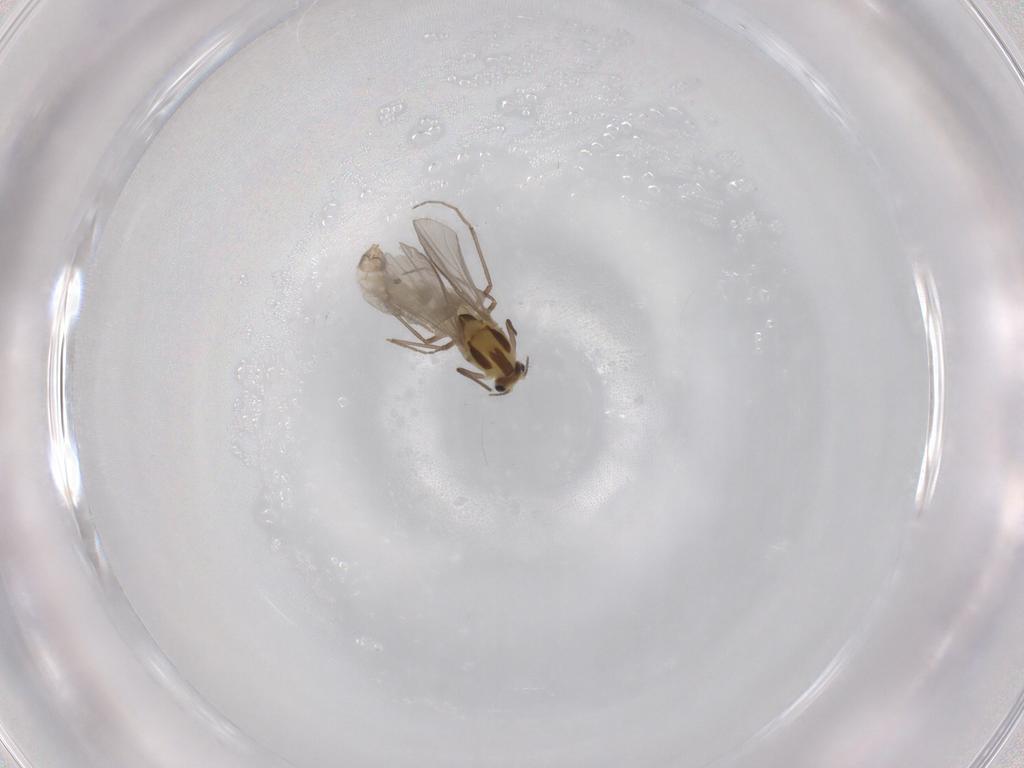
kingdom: Animalia
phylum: Arthropoda
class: Insecta
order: Diptera
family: Chironomidae
